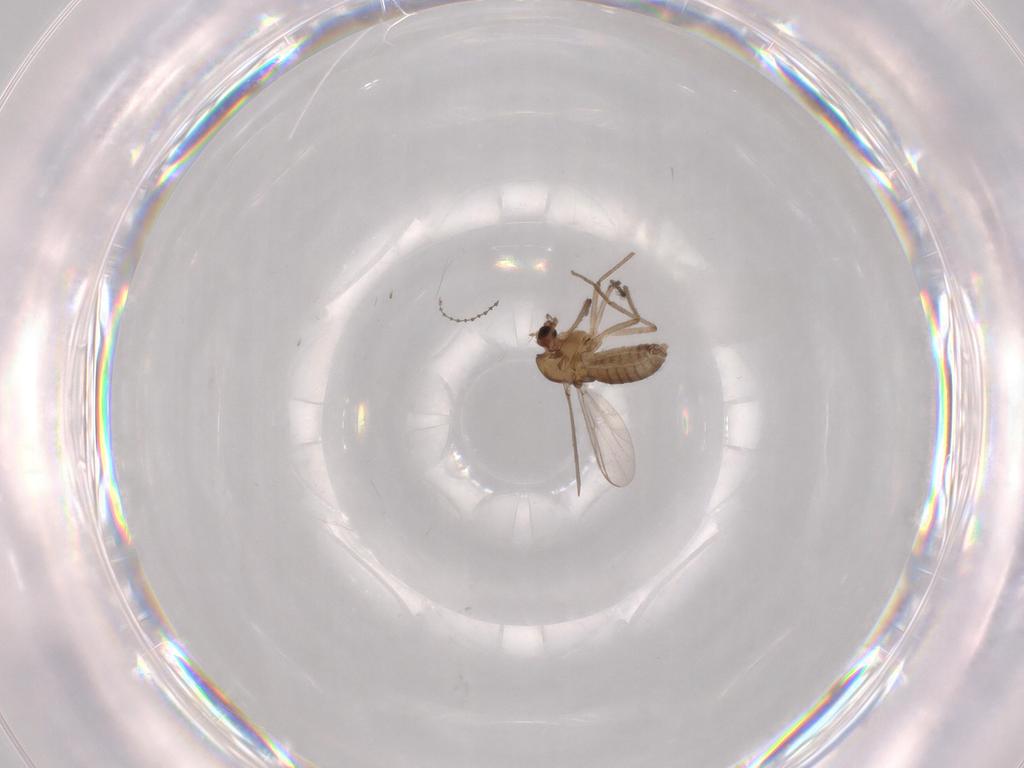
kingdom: Animalia
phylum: Arthropoda
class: Insecta
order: Diptera
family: Chironomidae
